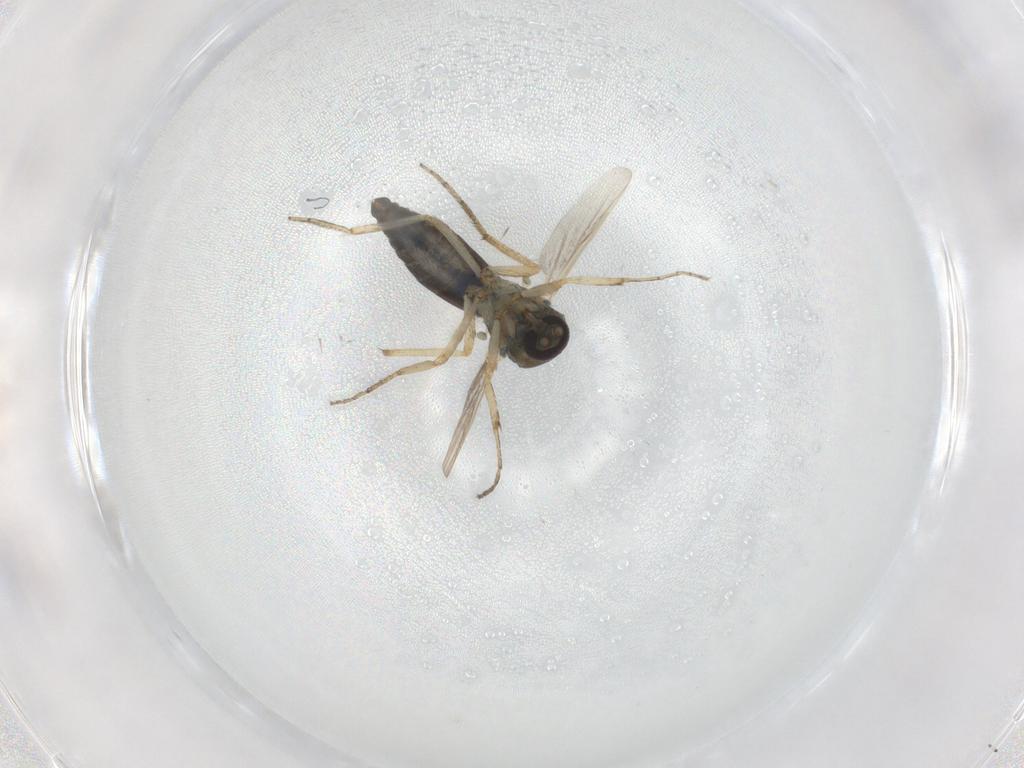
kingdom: Animalia
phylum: Arthropoda
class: Insecta
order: Diptera
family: Ceratopogonidae
